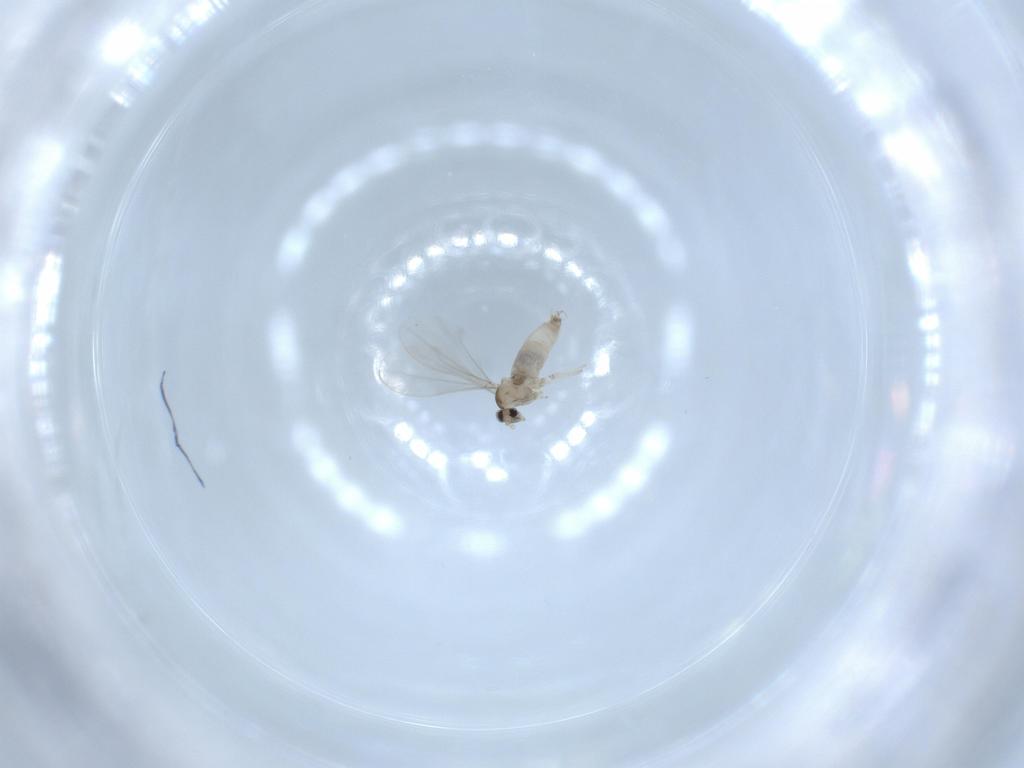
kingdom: Animalia
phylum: Arthropoda
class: Insecta
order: Diptera
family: Cecidomyiidae
